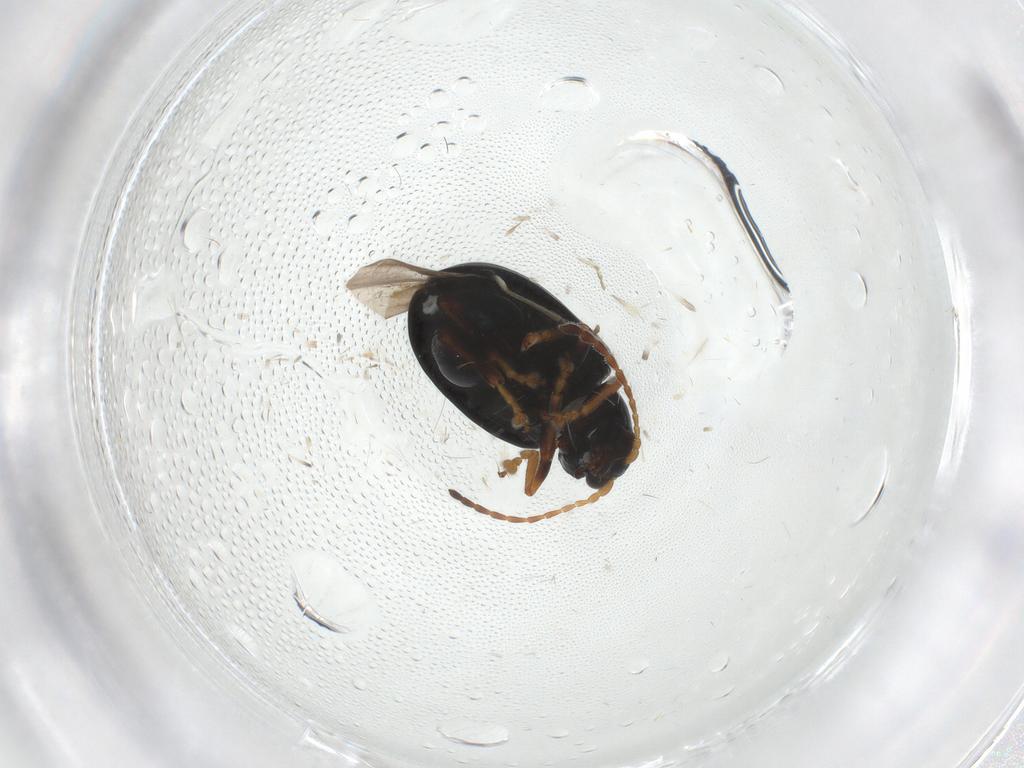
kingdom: Animalia
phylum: Arthropoda
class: Insecta
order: Coleoptera
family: Chrysomelidae
